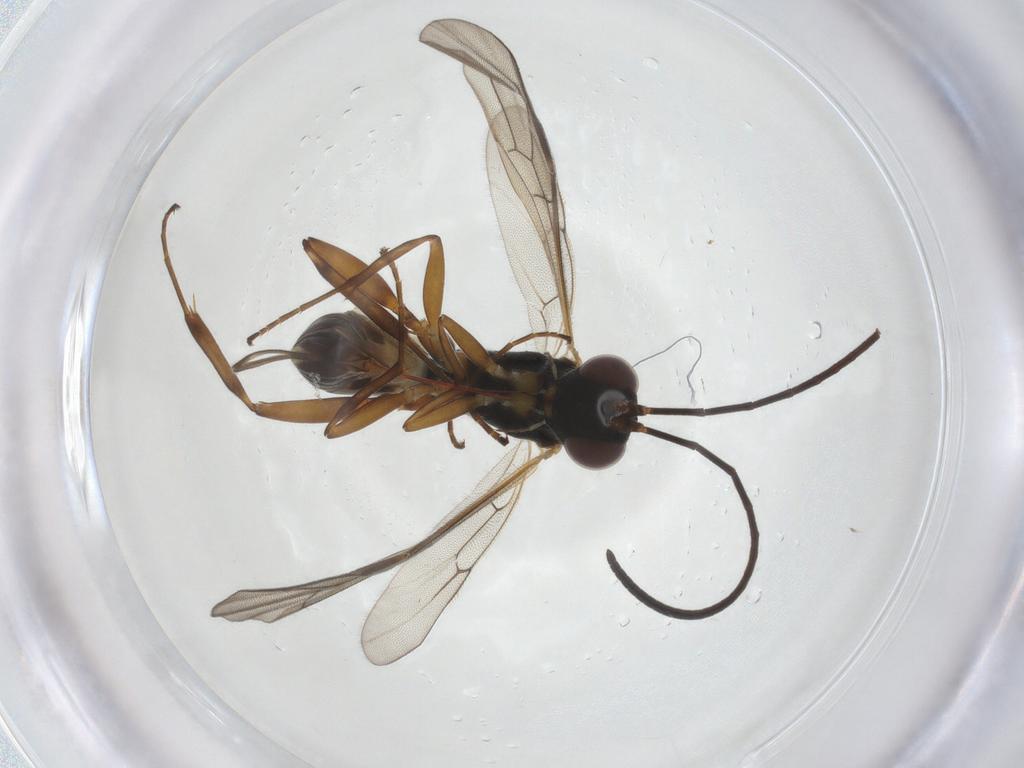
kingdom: Animalia
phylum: Arthropoda
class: Insecta
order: Hymenoptera
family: Ichneumonidae
